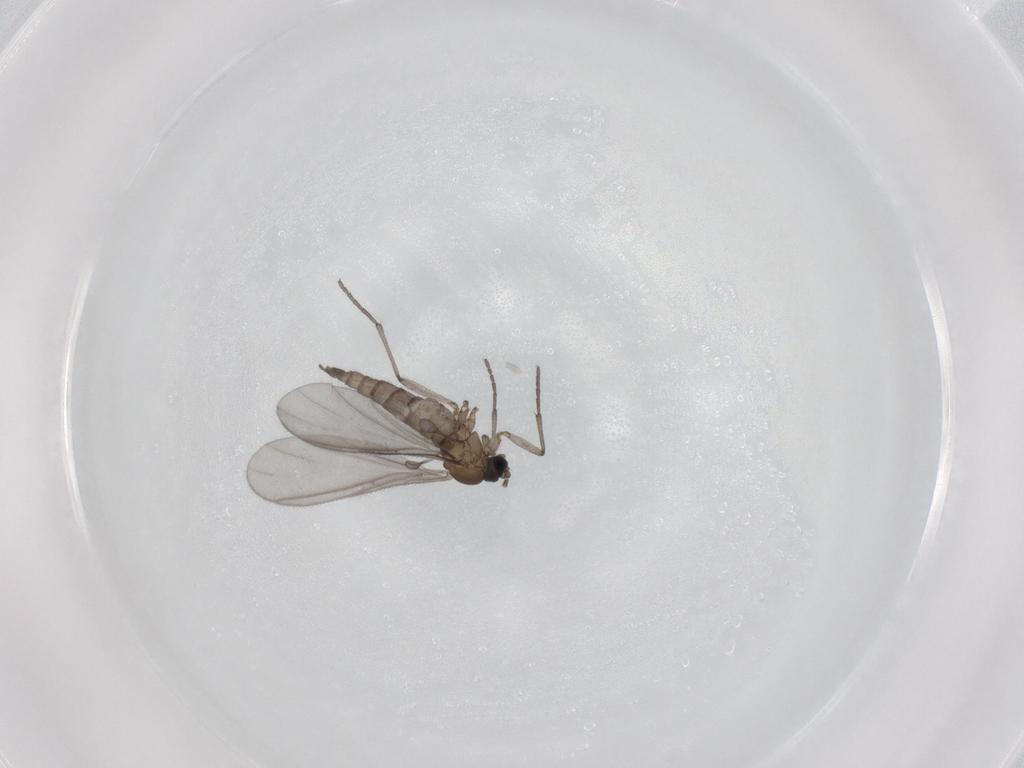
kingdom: Animalia
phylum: Arthropoda
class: Insecta
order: Diptera
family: Sciaridae
